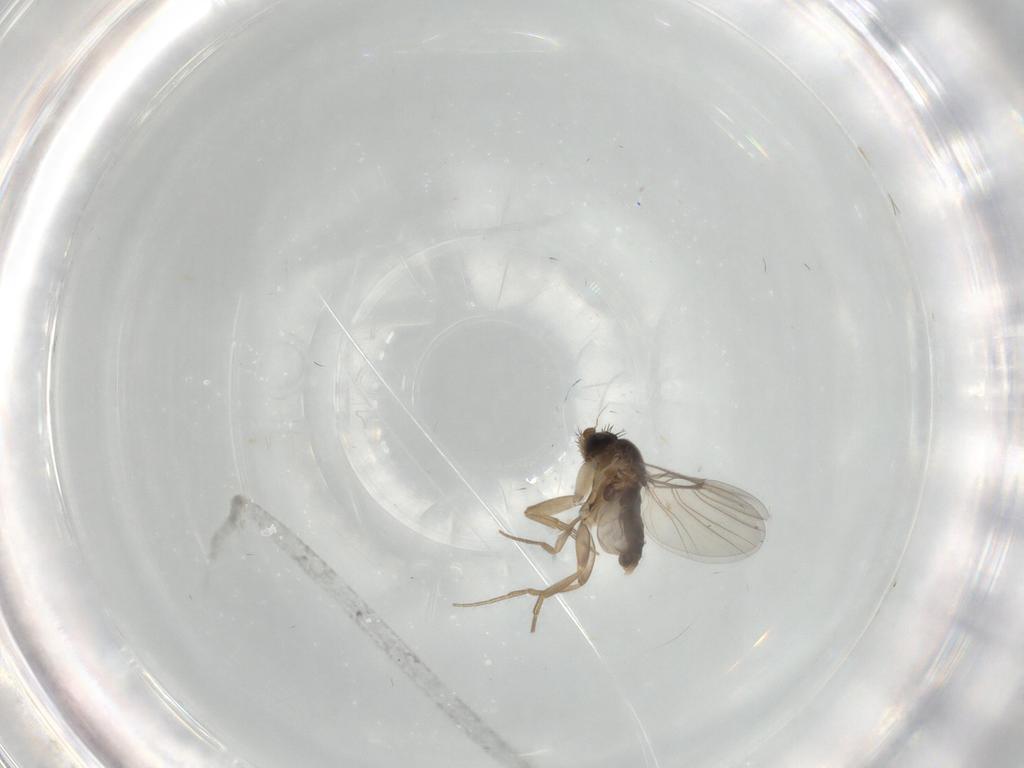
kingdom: Animalia
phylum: Arthropoda
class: Insecta
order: Diptera
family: Phoridae
